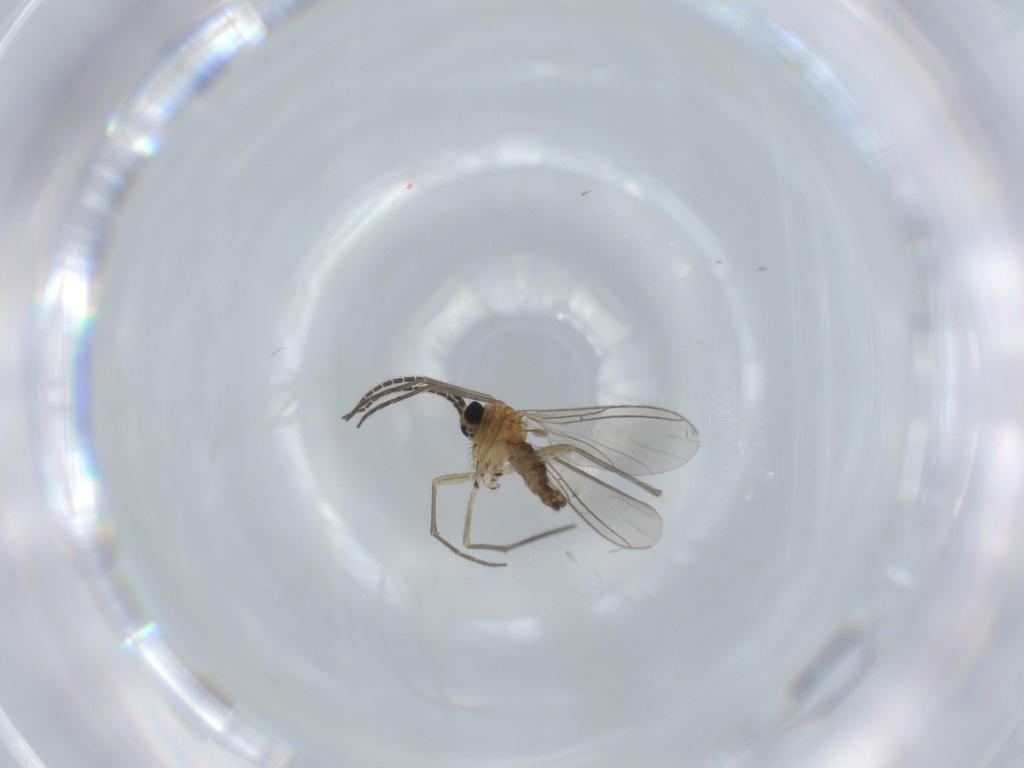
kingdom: Animalia
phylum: Arthropoda
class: Insecta
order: Diptera
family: Sciaridae
